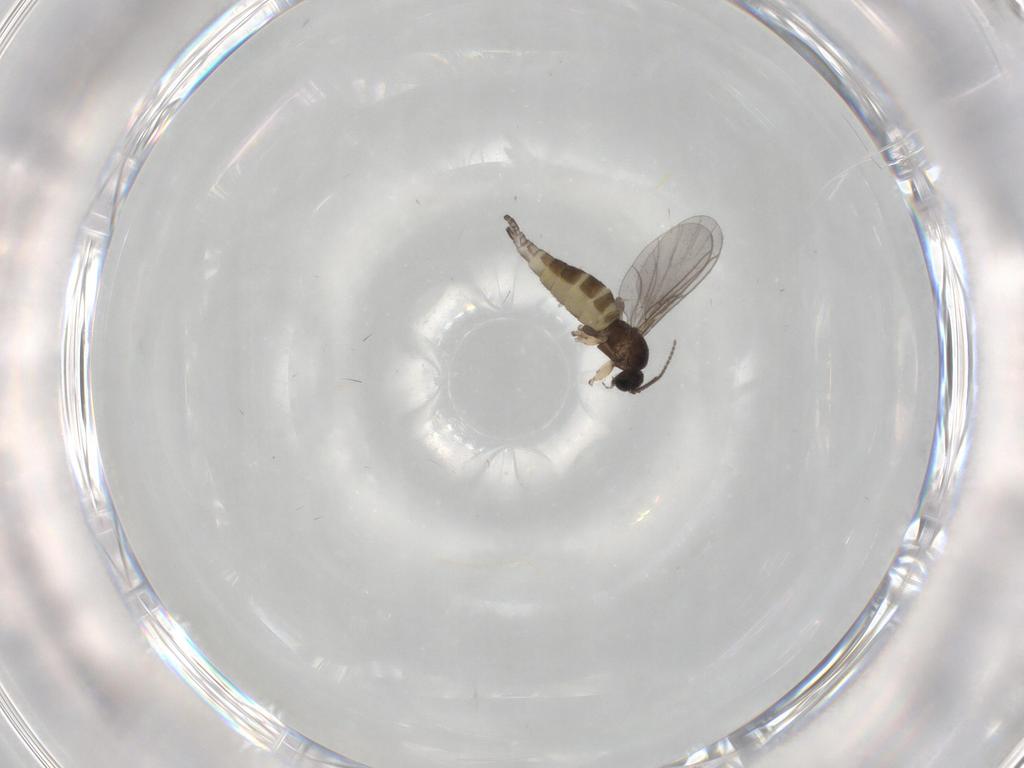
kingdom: Animalia
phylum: Arthropoda
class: Insecta
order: Diptera
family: Sciaridae
